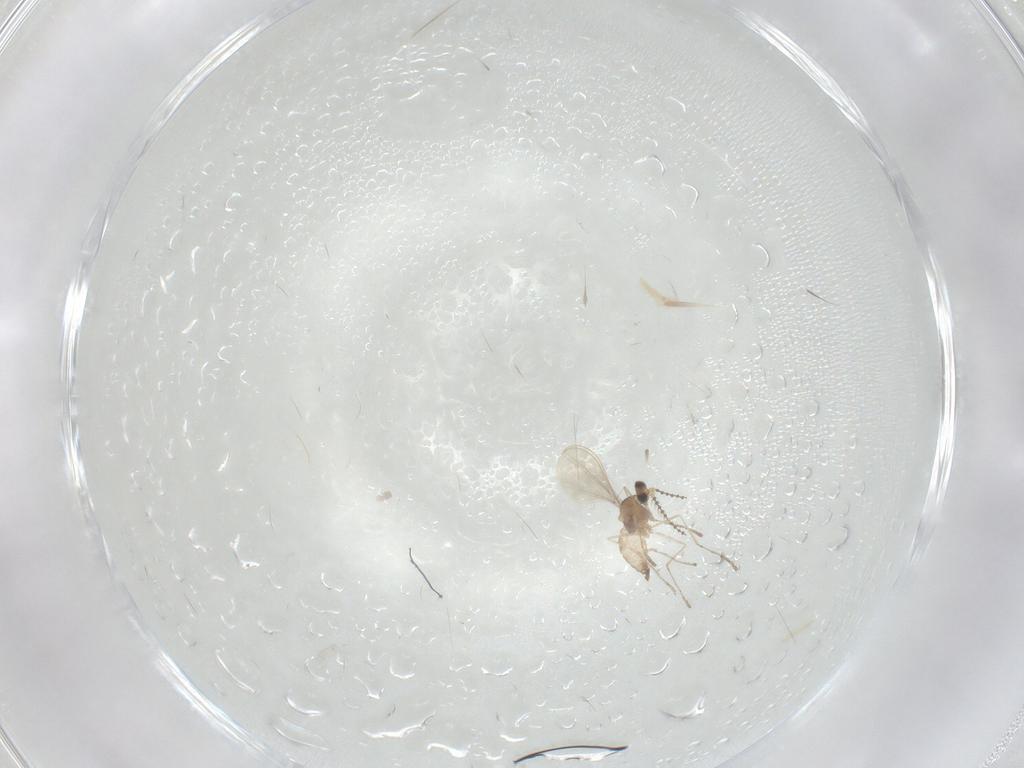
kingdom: Animalia
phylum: Arthropoda
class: Insecta
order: Diptera
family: Cecidomyiidae
